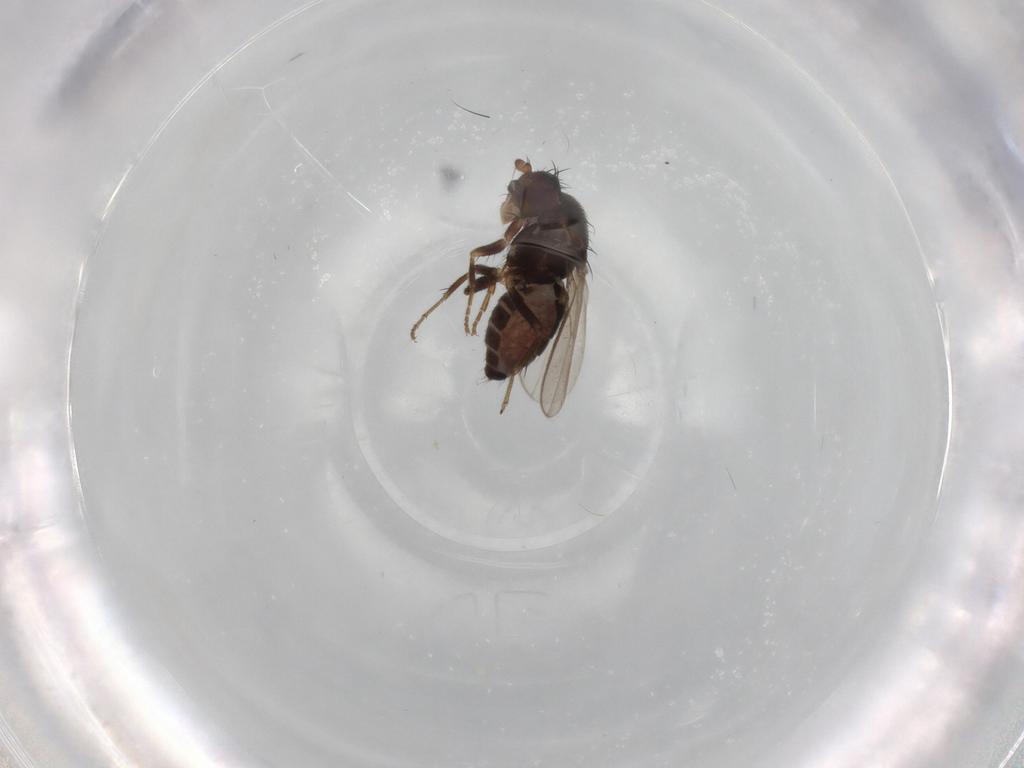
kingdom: Animalia
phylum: Arthropoda
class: Insecta
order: Diptera
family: Sphaeroceridae
